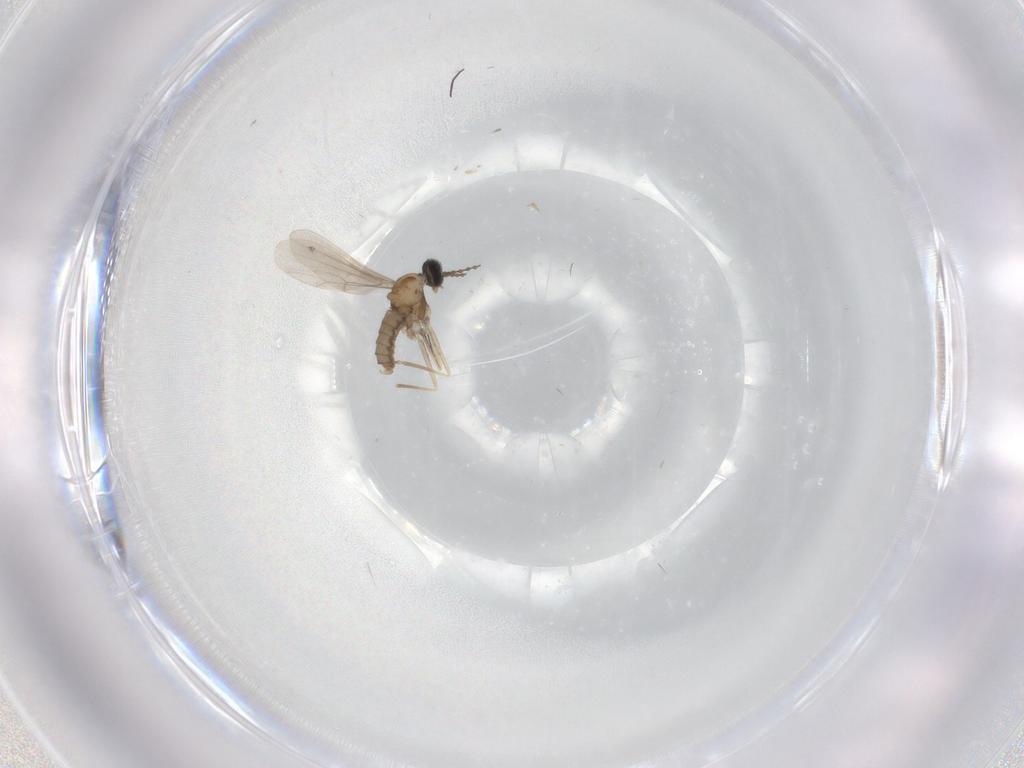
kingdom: Animalia
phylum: Arthropoda
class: Insecta
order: Diptera
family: Cecidomyiidae
